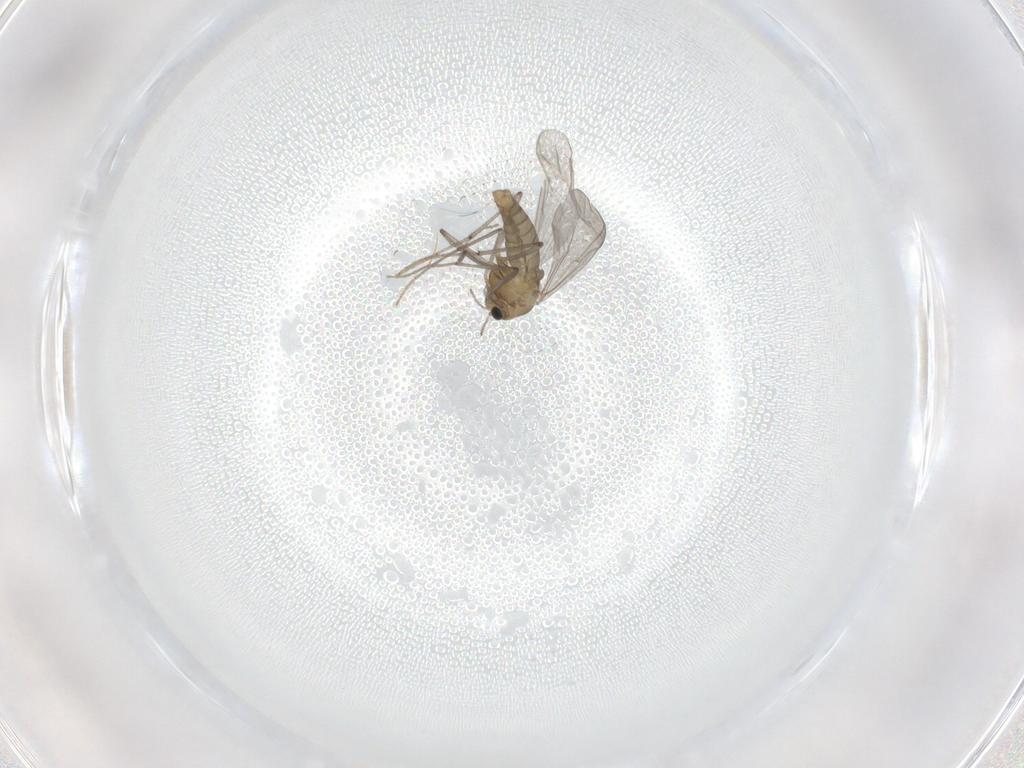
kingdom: Animalia
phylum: Arthropoda
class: Insecta
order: Diptera
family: Chironomidae
